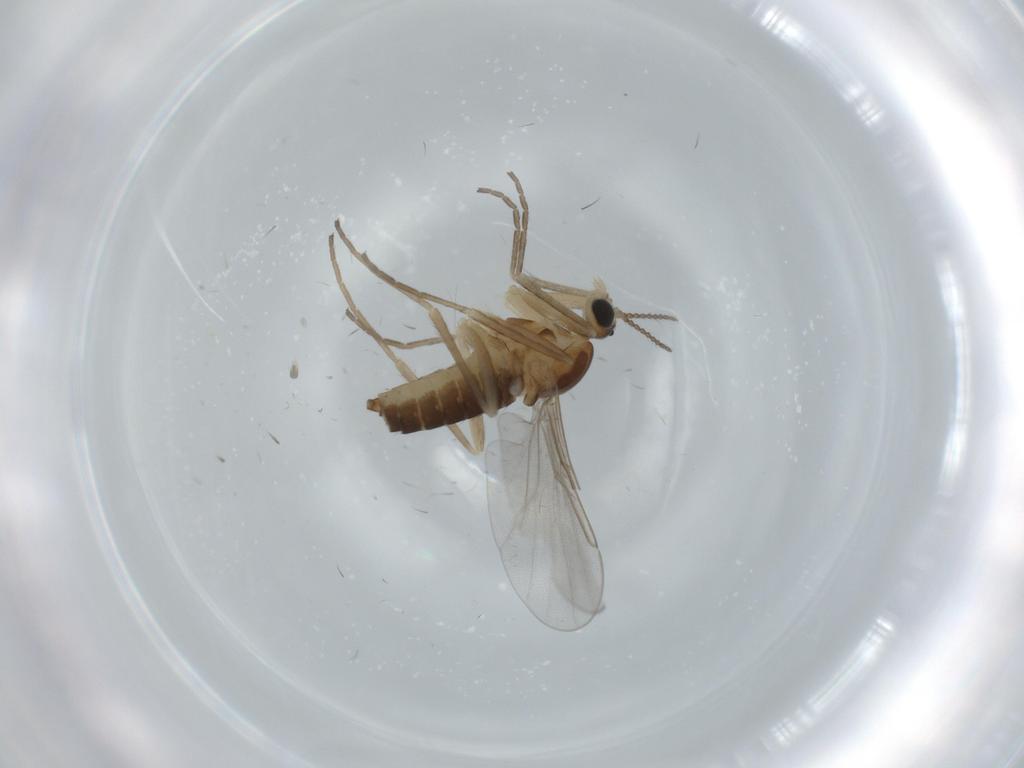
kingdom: Animalia
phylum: Arthropoda
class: Insecta
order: Diptera
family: Cecidomyiidae
